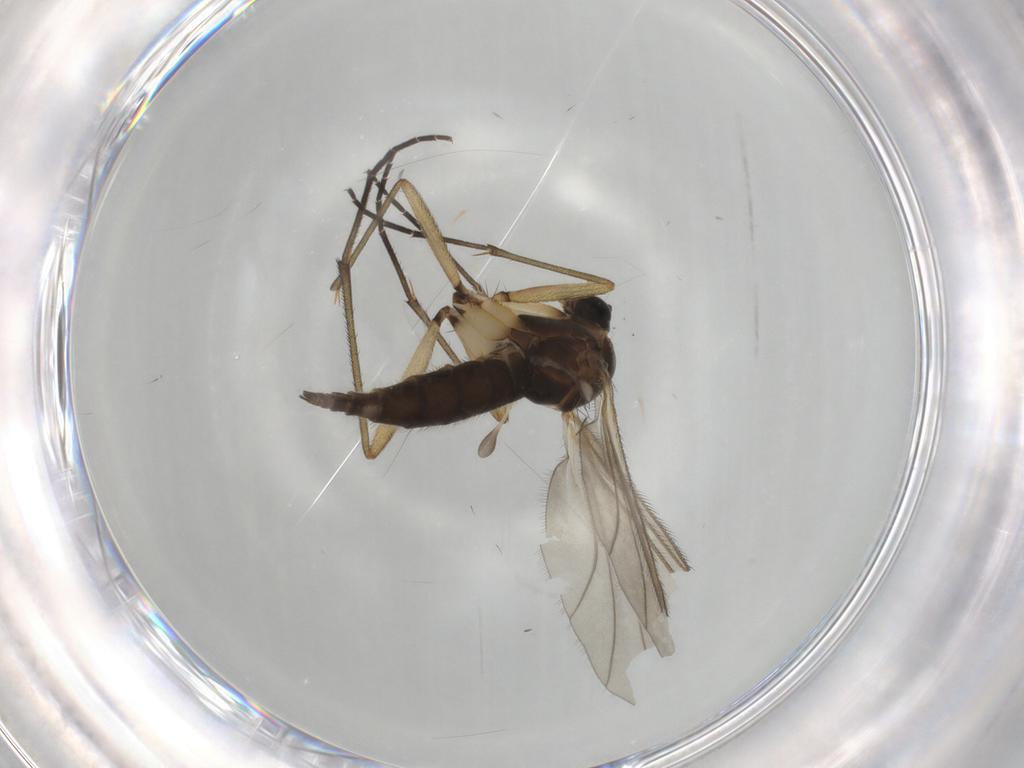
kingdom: Animalia
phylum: Arthropoda
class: Insecta
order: Diptera
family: Sciaridae
